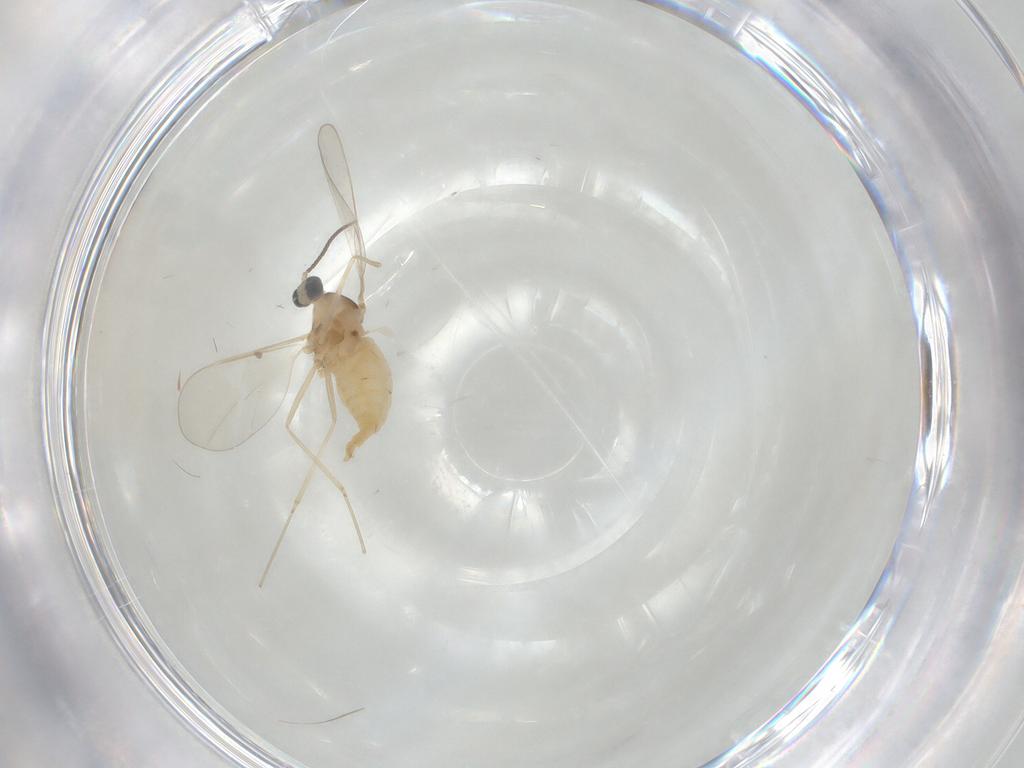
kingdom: Animalia
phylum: Arthropoda
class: Insecta
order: Diptera
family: Cecidomyiidae
